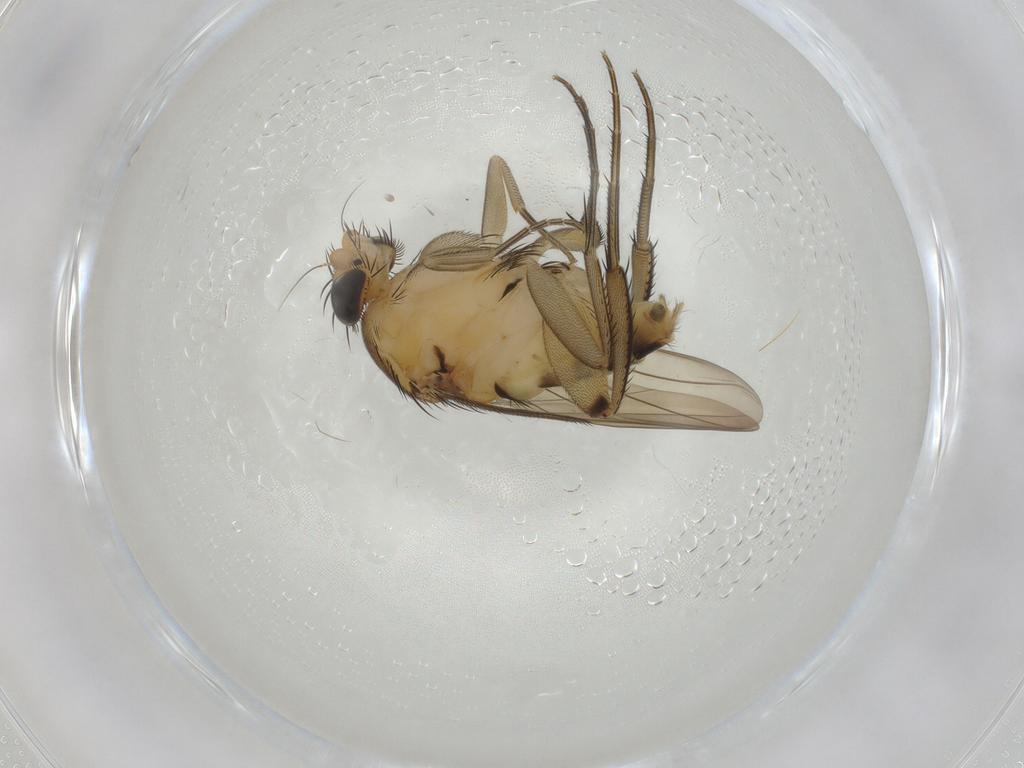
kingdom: Animalia
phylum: Arthropoda
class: Insecta
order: Diptera
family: Phoridae
